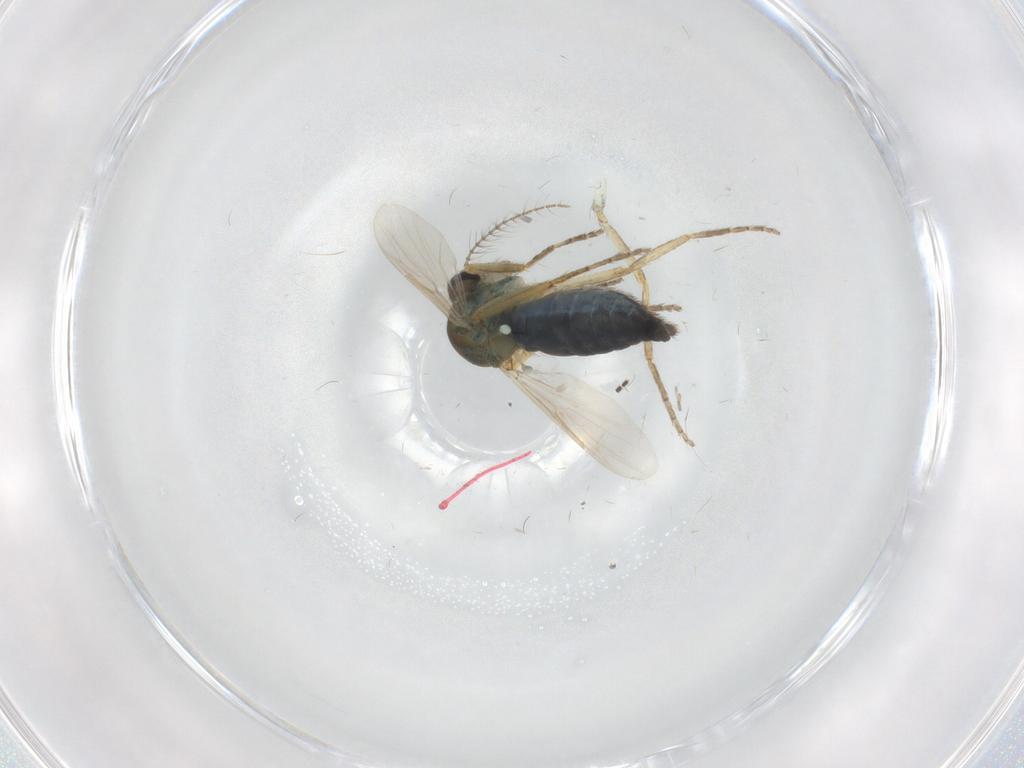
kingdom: Animalia
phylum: Arthropoda
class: Insecta
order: Diptera
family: Ceratopogonidae
